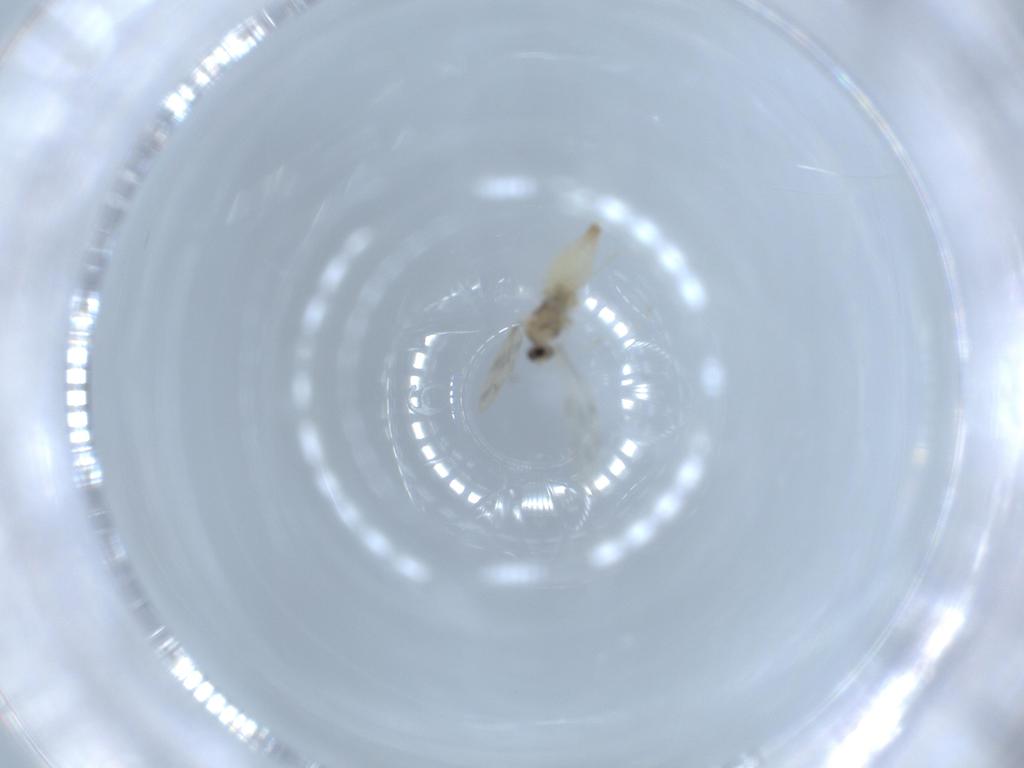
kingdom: Animalia
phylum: Arthropoda
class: Insecta
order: Diptera
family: Cecidomyiidae
